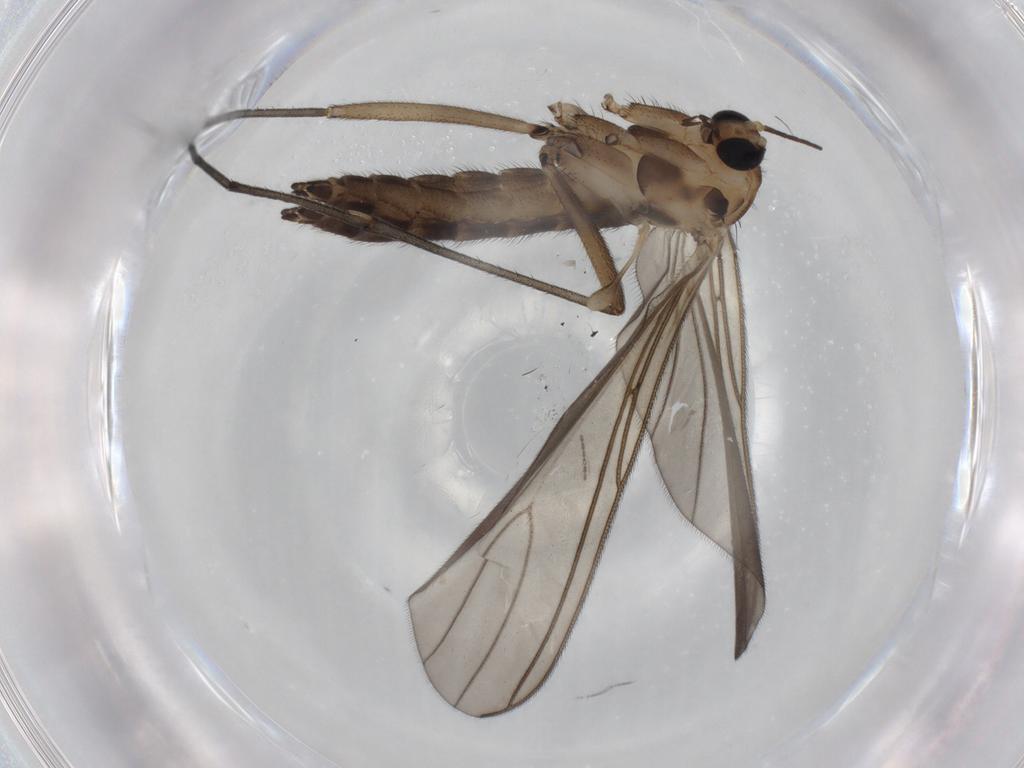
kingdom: Animalia
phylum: Arthropoda
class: Insecta
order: Diptera
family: Sciaridae
